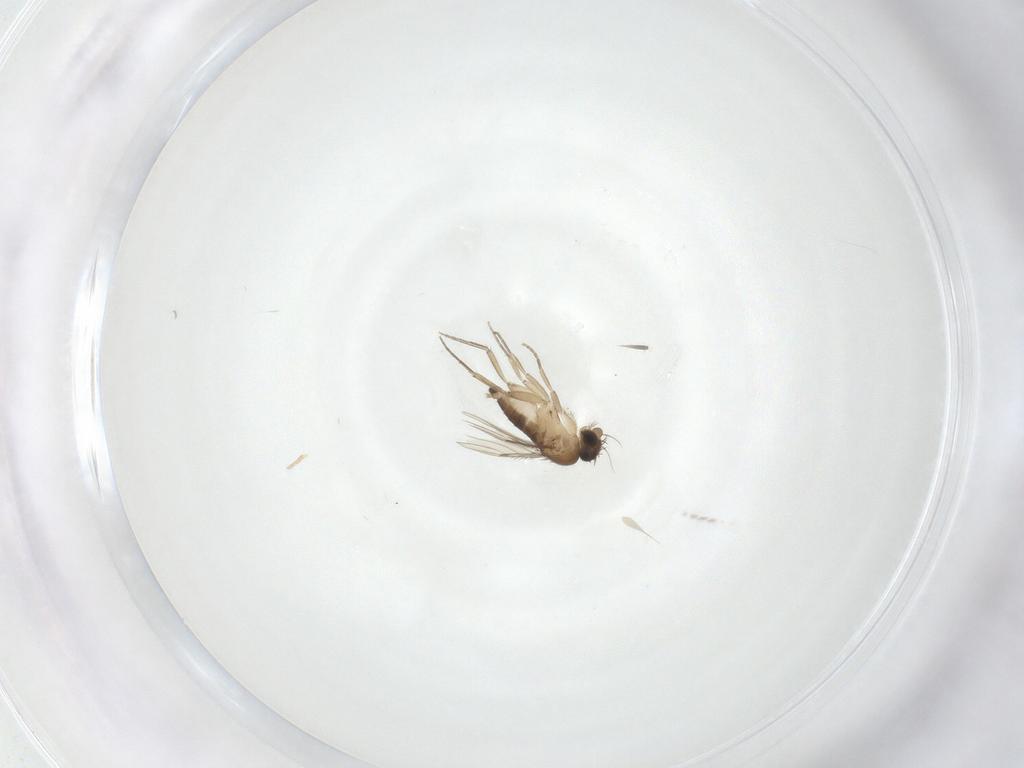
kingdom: Animalia
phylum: Arthropoda
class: Insecta
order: Diptera
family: Phoridae
